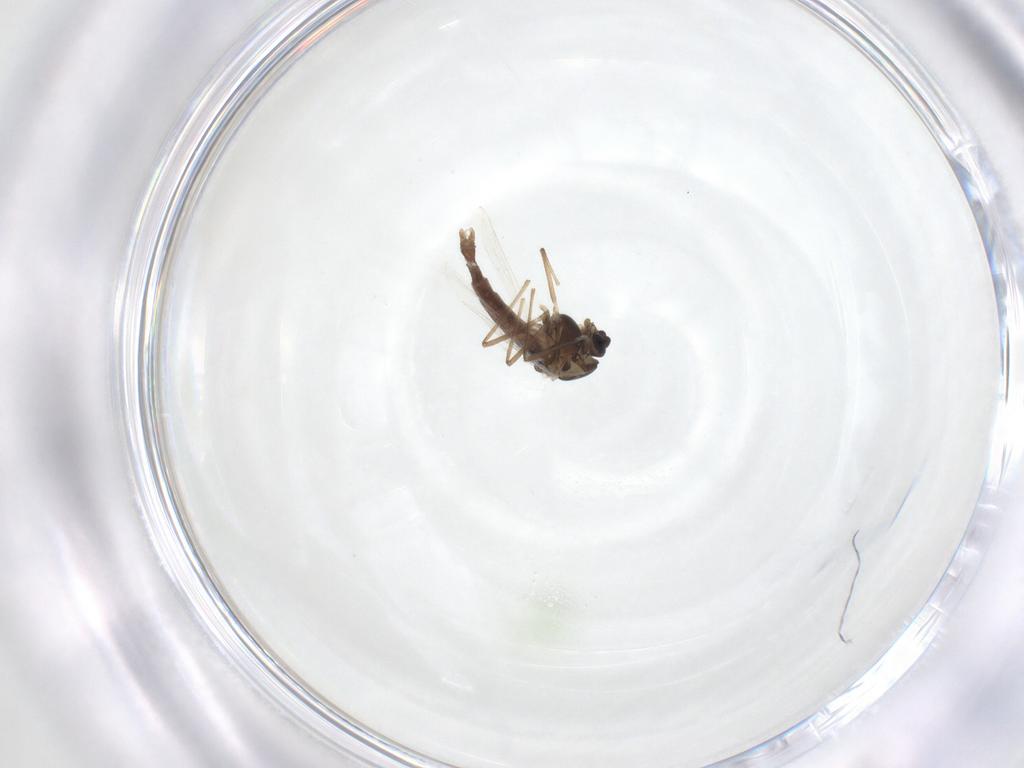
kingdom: Animalia
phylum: Arthropoda
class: Insecta
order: Diptera
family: Chironomidae
